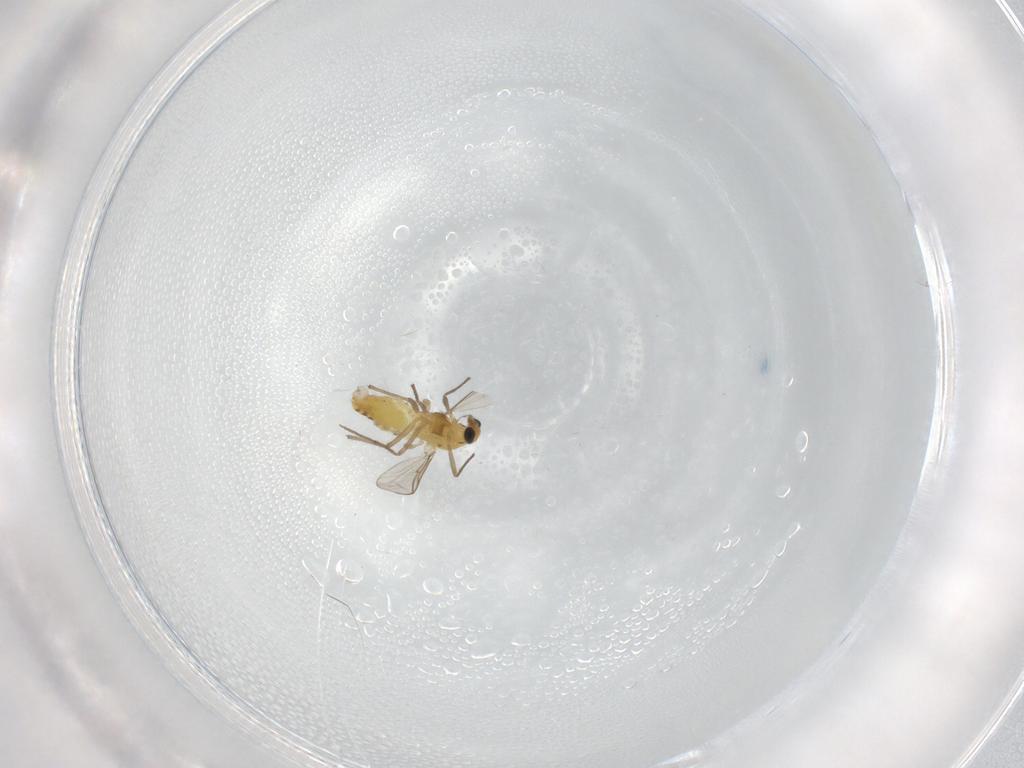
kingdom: Animalia
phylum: Arthropoda
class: Insecta
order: Diptera
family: Chironomidae
